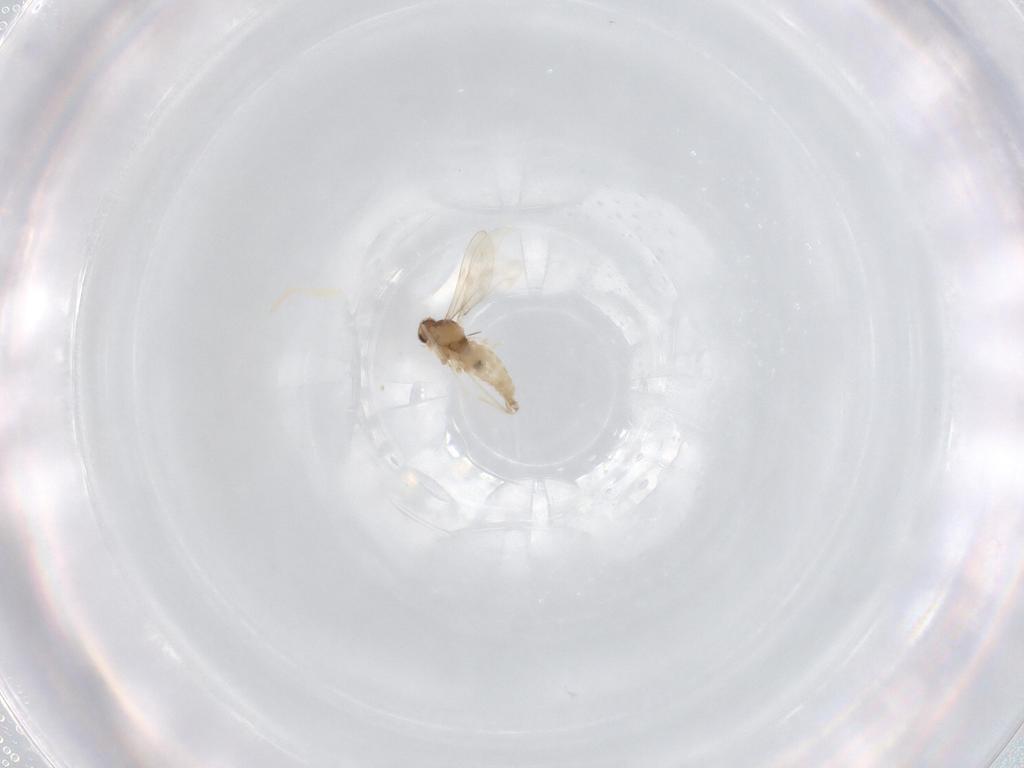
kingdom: Animalia
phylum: Arthropoda
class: Insecta
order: Diptera
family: Cecidomyiidae
